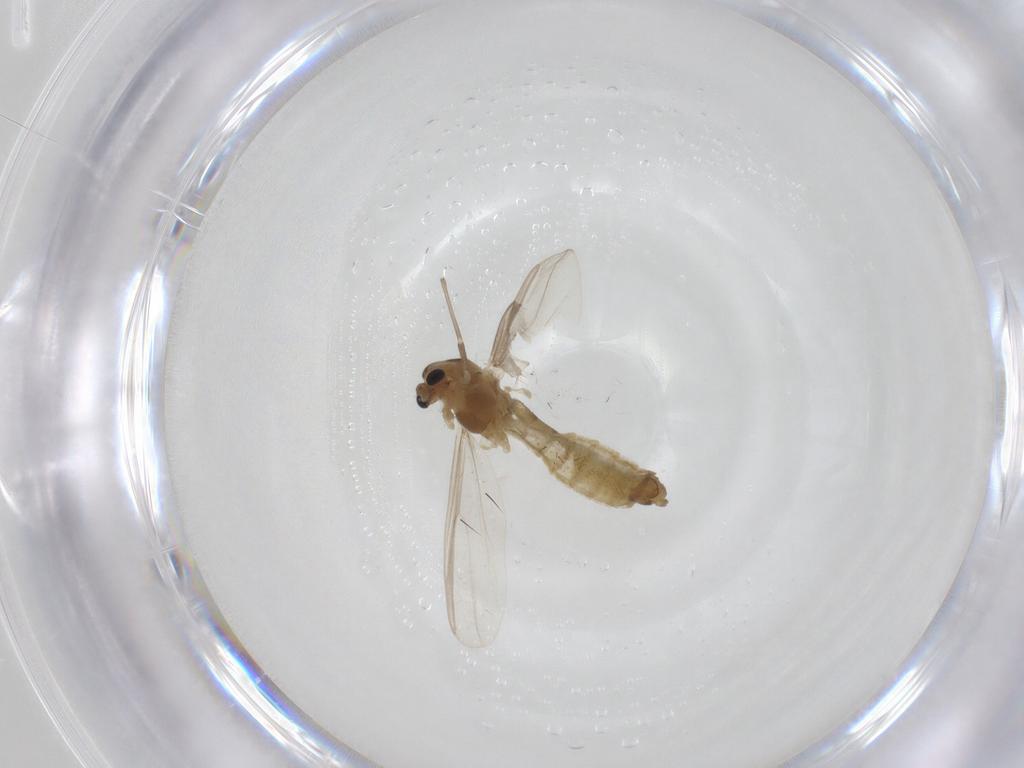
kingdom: Animalia
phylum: Arthropoda
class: Insecta
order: Diptera
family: Chironomidae
